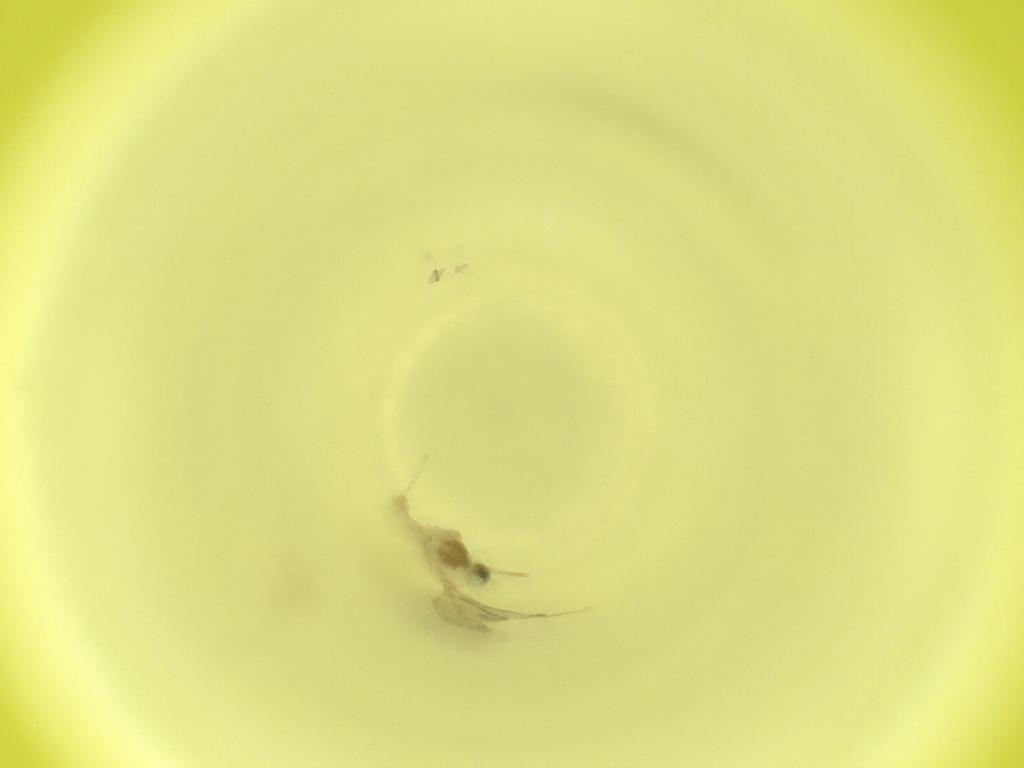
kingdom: Animalia
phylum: Arthropoda
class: Insecta
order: Diptera
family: Cecidomyiidae
